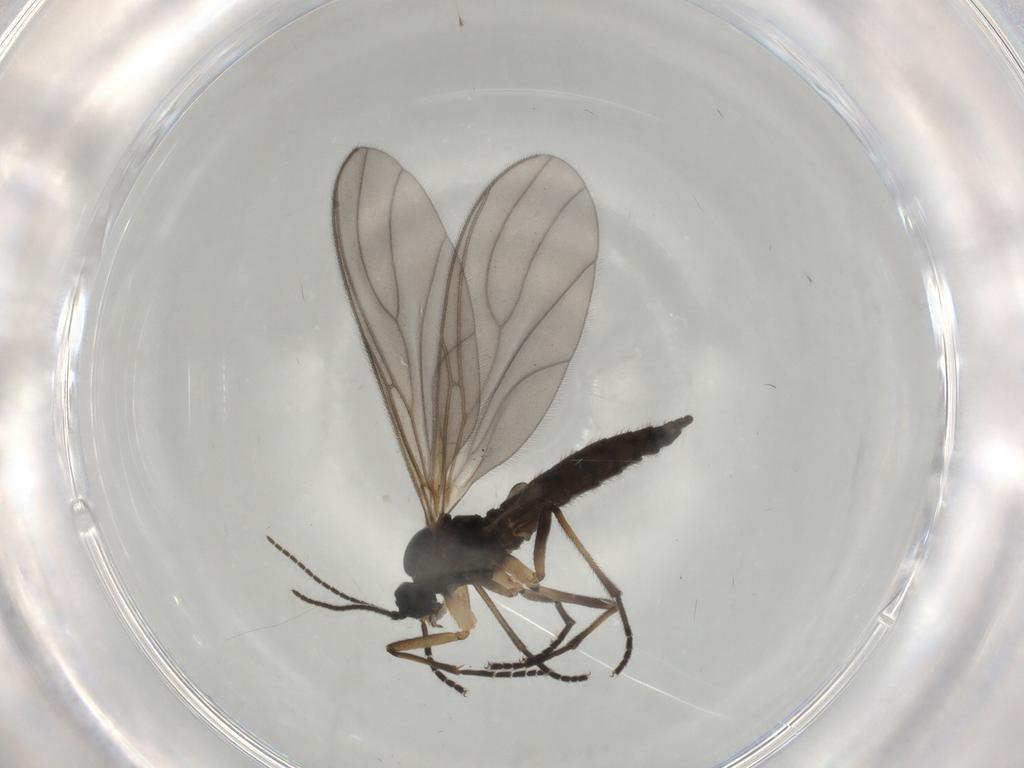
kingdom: Animalia
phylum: Arthropoda
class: Insecta
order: Diptera
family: Sciaridae
